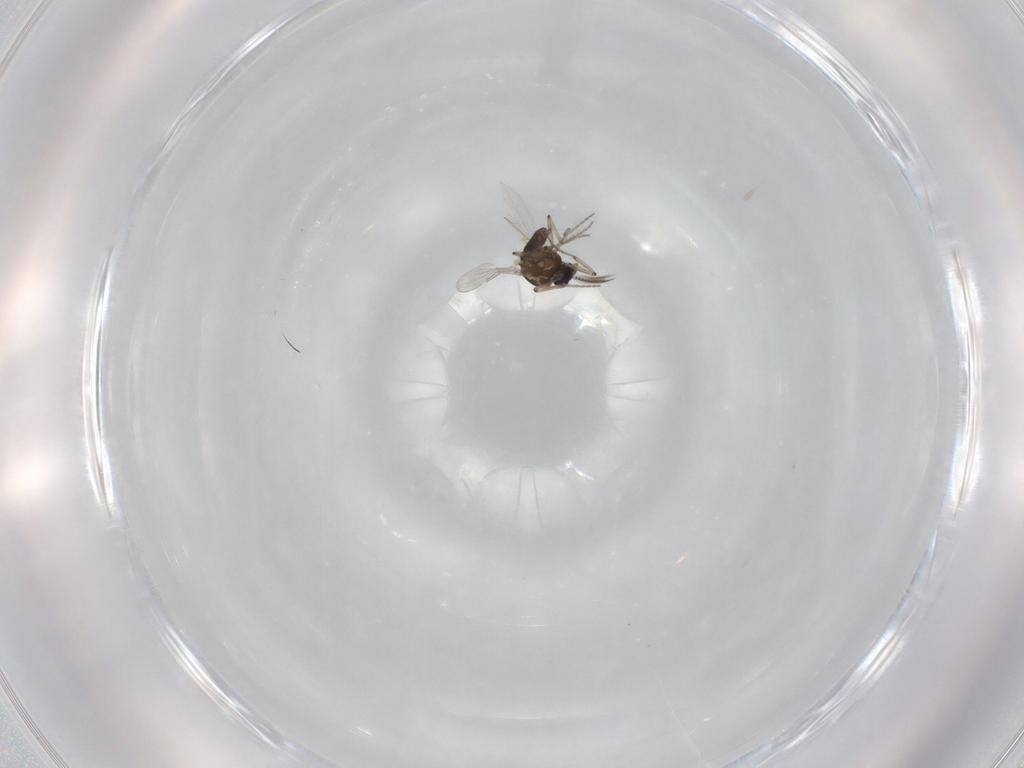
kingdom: Animalia
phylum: Arthropoda
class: Insecta
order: Diptera
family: Ceratopogonidae
